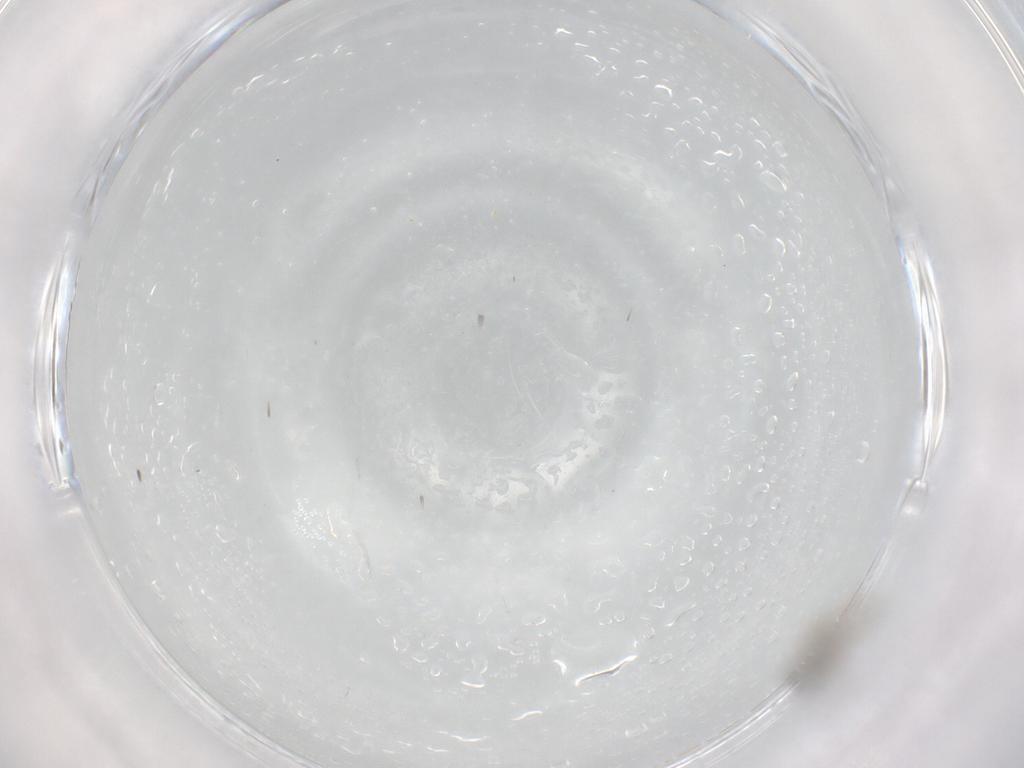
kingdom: Animalia
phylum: Arthropoda
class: Insecta
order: Diptera
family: Cecidomyiidae
